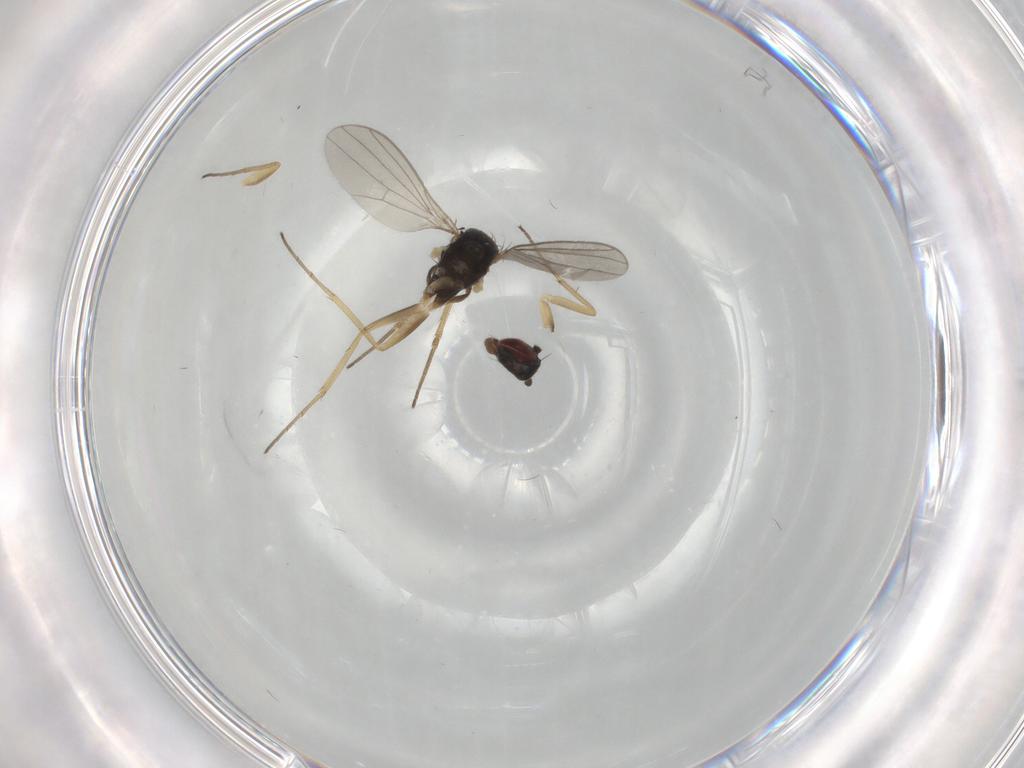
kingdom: Animalia
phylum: Arthropoda
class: Insecta
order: Diptera
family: Dolichopodidae
